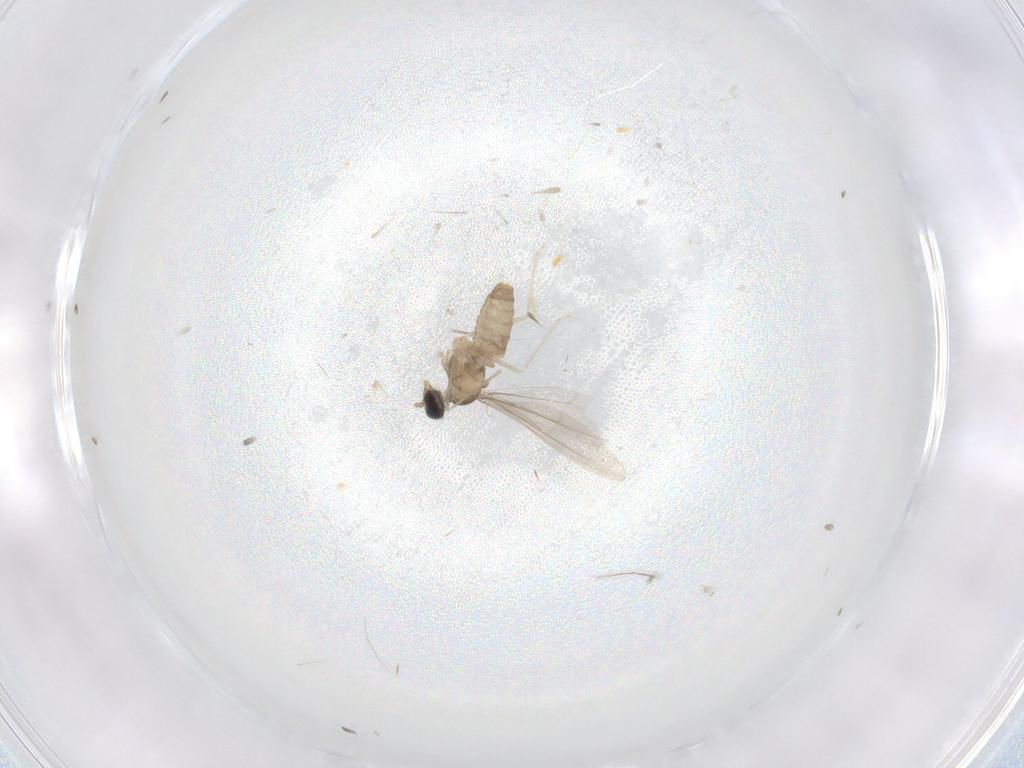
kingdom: Animalia
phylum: Arthropoda
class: Insecta
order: Diptera
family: Cecidomyiidae
